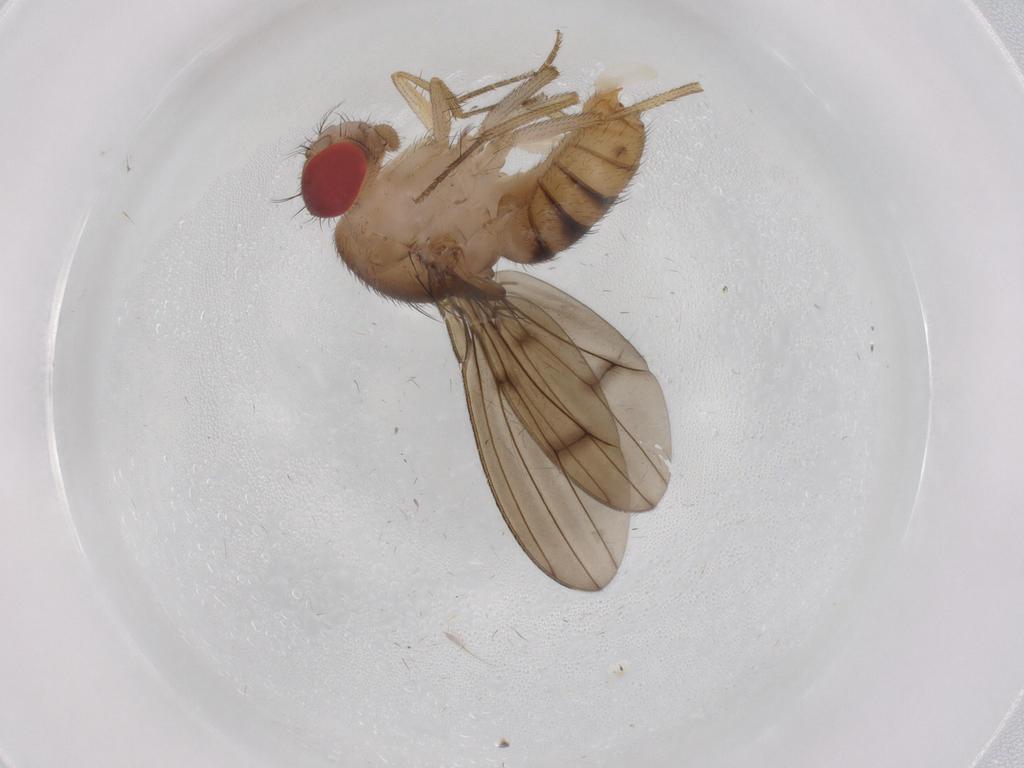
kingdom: Animalia
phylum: Arthropoda
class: Insecta
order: Diptera
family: Drosophilidae
